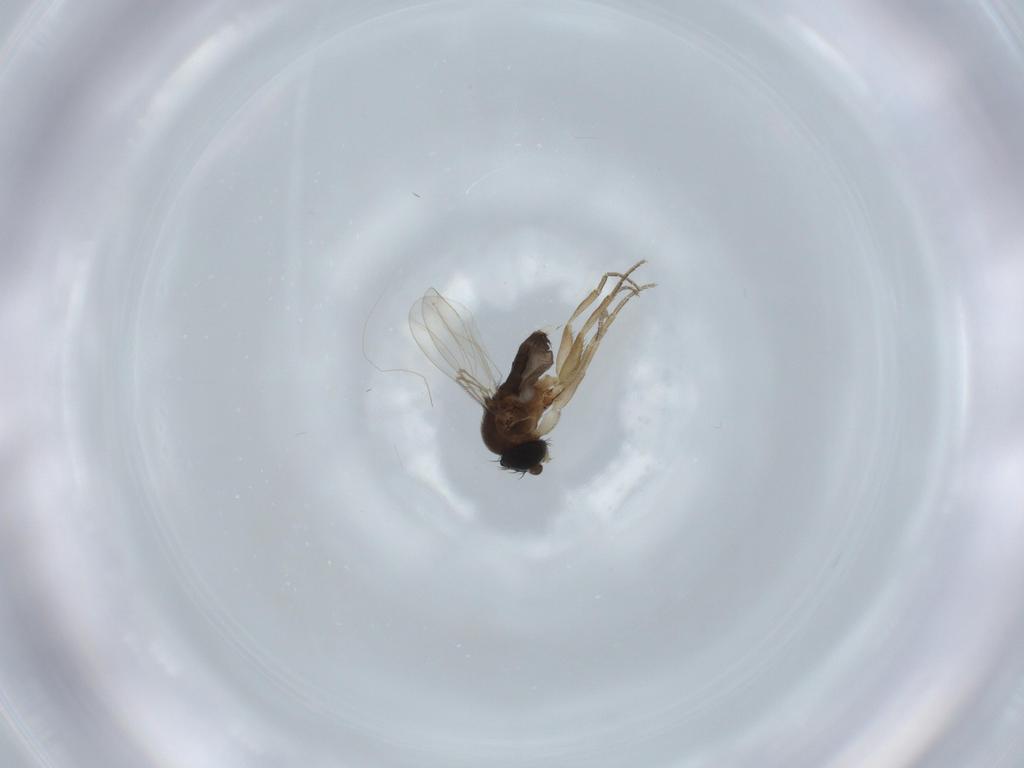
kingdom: Animalia
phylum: Arthropoda
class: Insecta
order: Diptera
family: Phoridae
